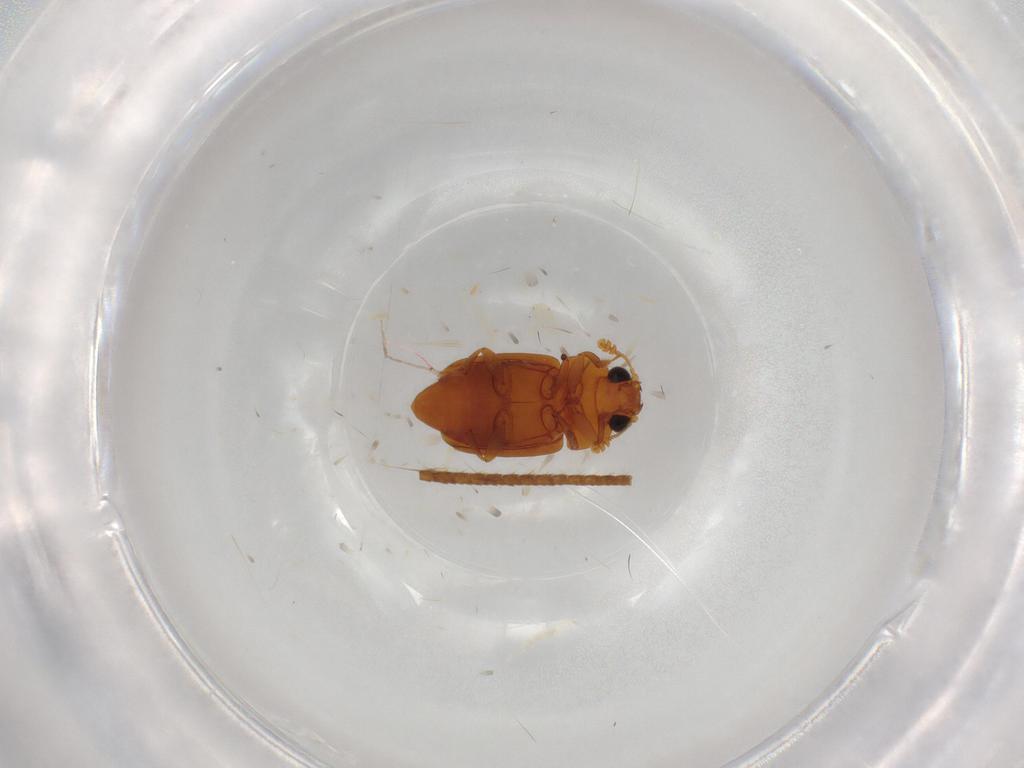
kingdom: Animalia
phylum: Arthropoda
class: Insecta
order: Coleoptera
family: Nitidulidae
